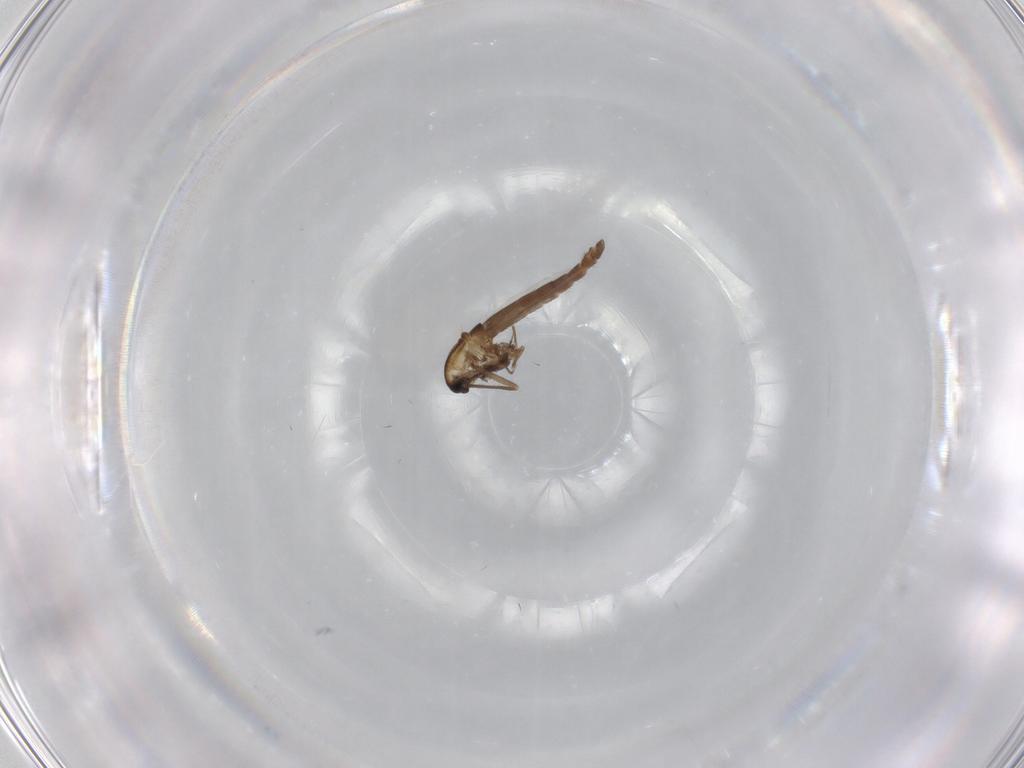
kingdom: Animalia
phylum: Arthropoda
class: Insecta
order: Diptera
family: Chironomidae
